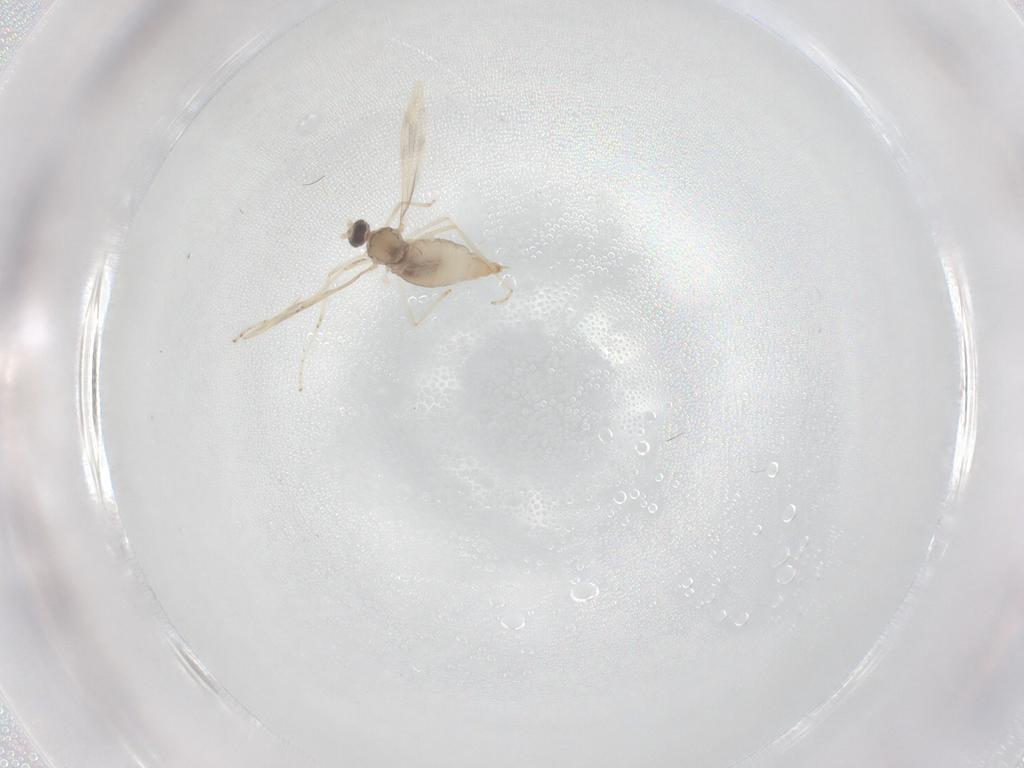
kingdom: Animalia
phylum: Arthropoda
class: Insecta
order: Diptera
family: Cecidomyiidae
